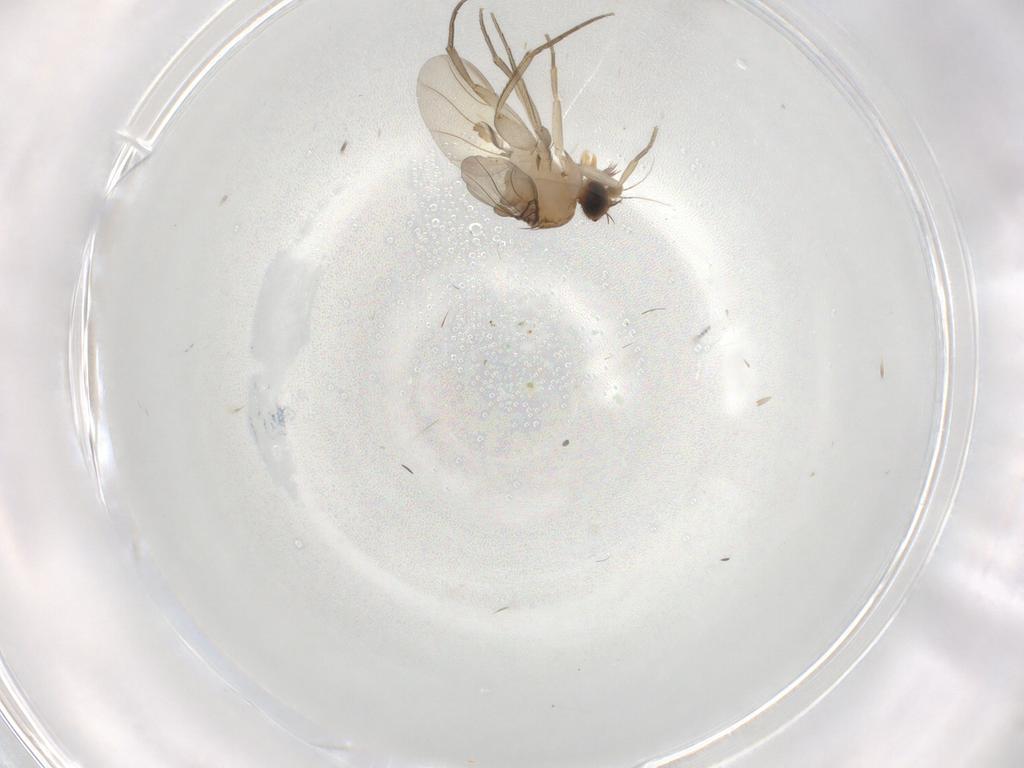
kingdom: Animalia
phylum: Arthropoda
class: Insecta
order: Diptera
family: Cecidomyiidae
